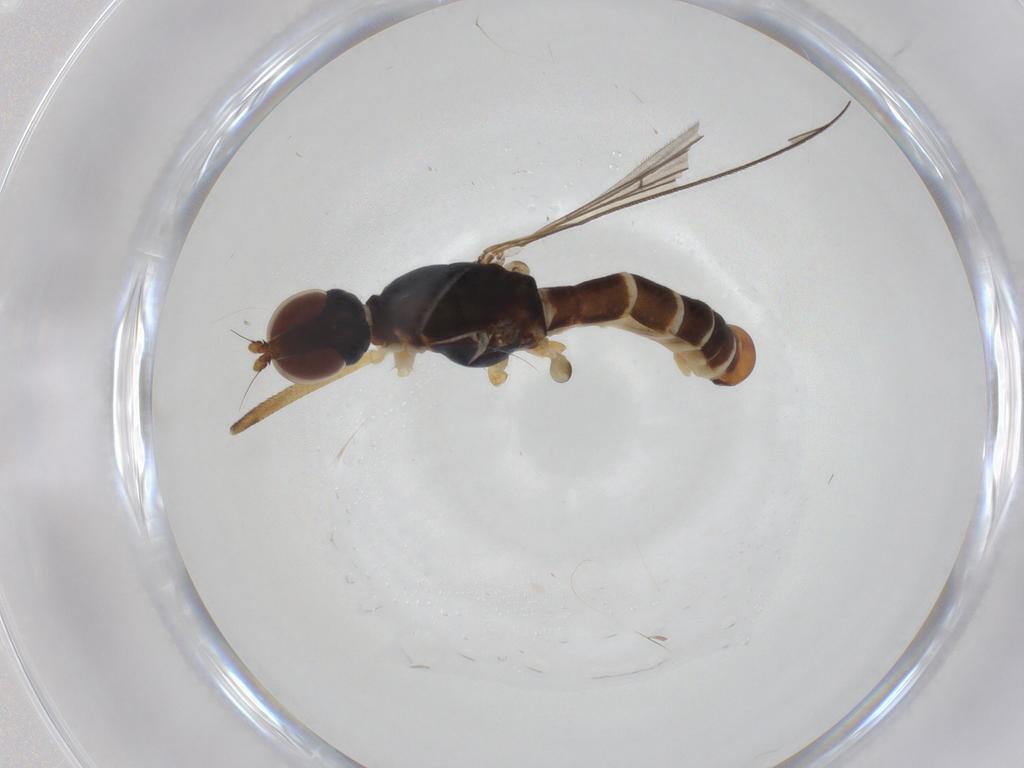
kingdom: Animalia
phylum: Arthropoda
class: Insecta
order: Diptera
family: Micropezidae
